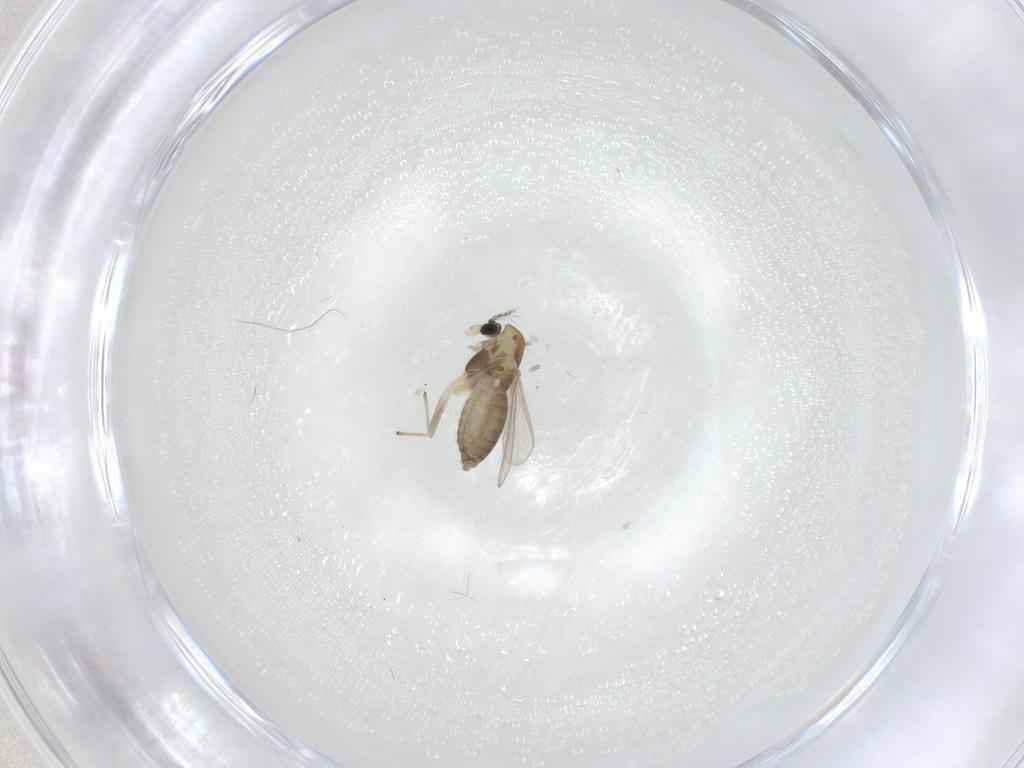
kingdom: Animalia
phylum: Arthropoda
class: Insecta
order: Diptera
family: Chironomidae
